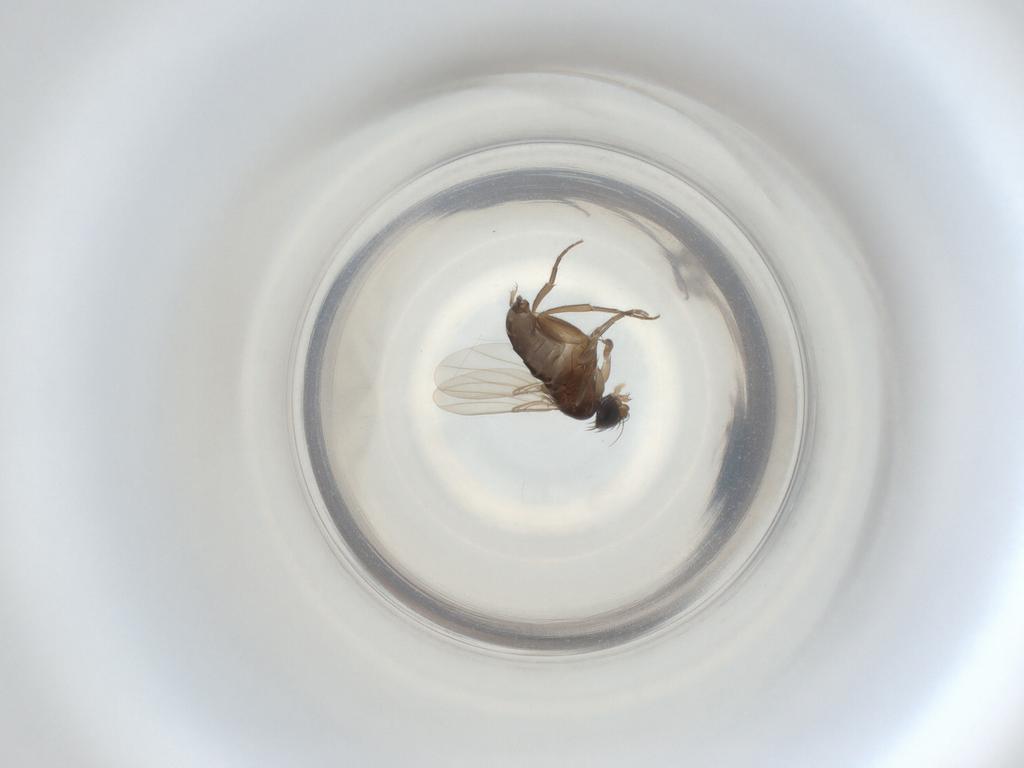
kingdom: Animalia
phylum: Arthropoda
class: Insecta
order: Diptera
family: Phoridae
